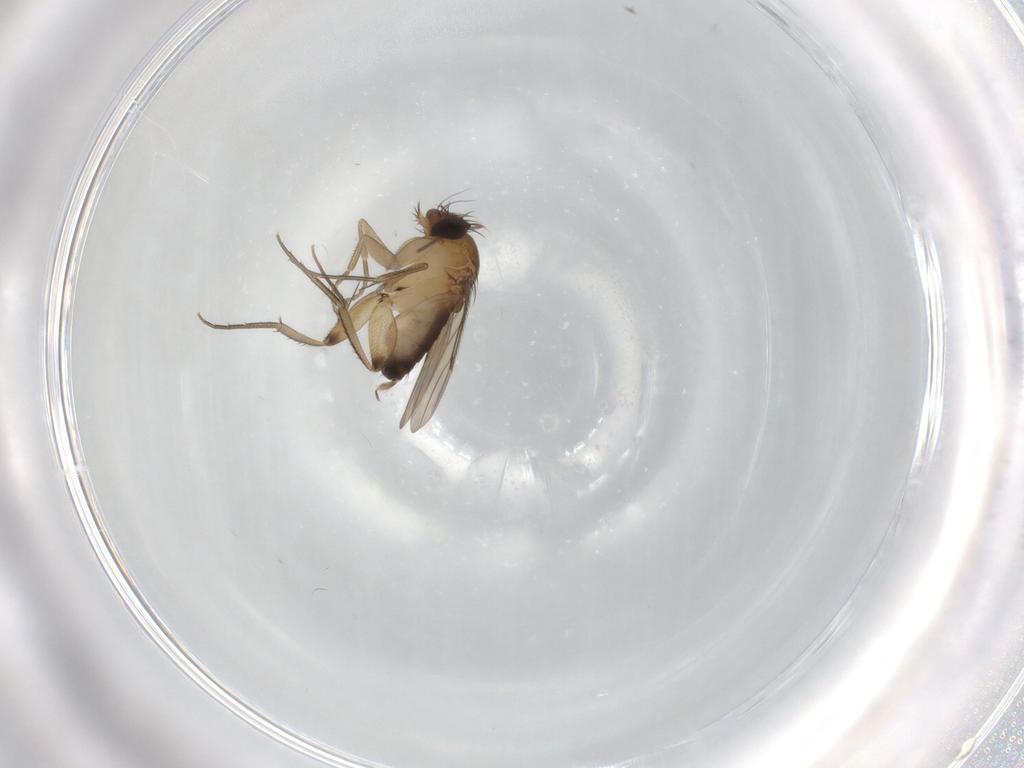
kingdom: Animalia
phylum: Arthropoda
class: Insecta
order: Diptera
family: Phoridae
